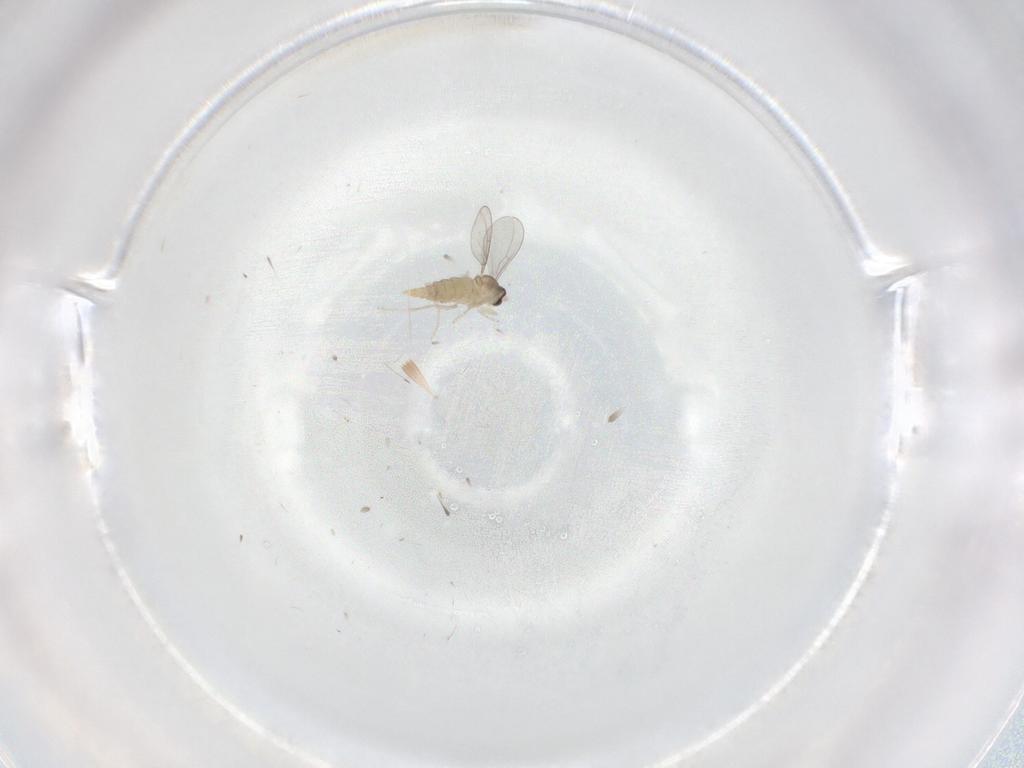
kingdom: Animalia
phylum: Arthropoda
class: Insecta
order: Diptera
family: Cecidomyiidae
